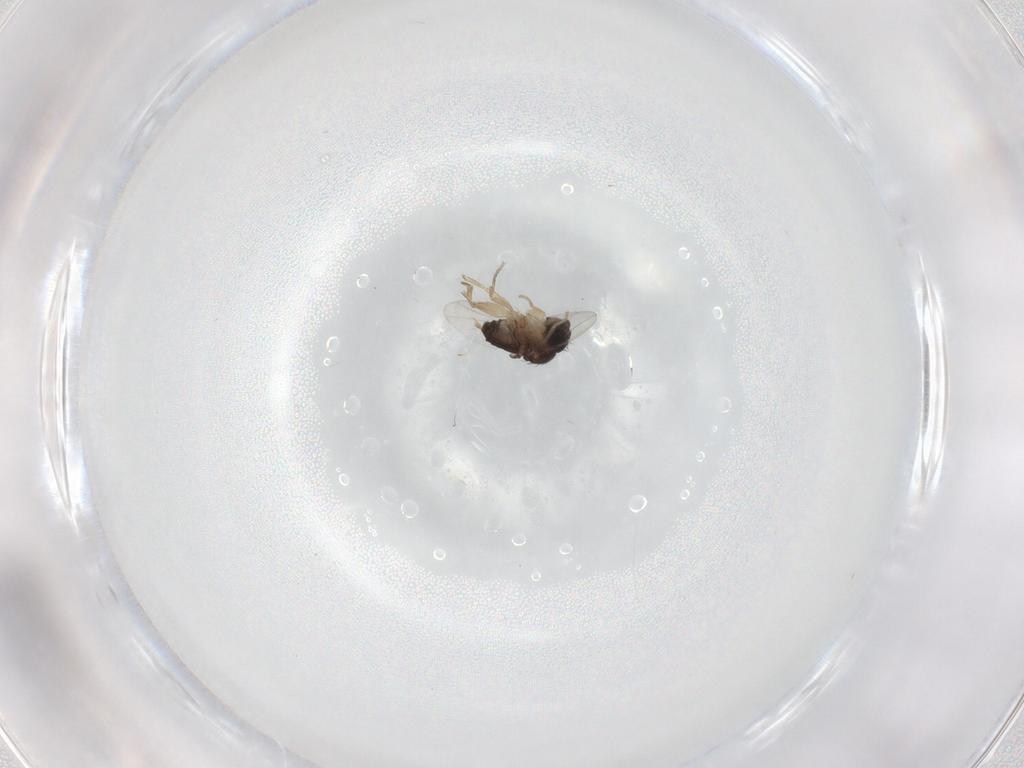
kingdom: Animalia
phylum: Arthropoda
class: Insecta
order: Diptera
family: Phoridae
